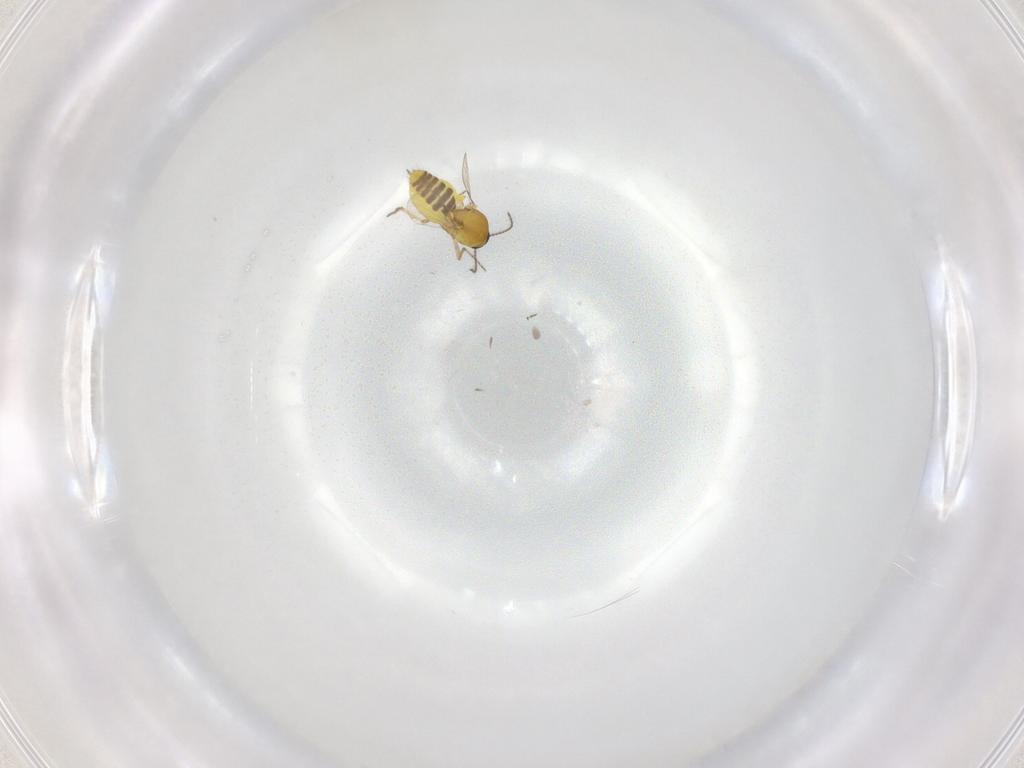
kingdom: Animalia
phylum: Arthropoda
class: Insecta
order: Diptera
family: Ceratopogonidae
